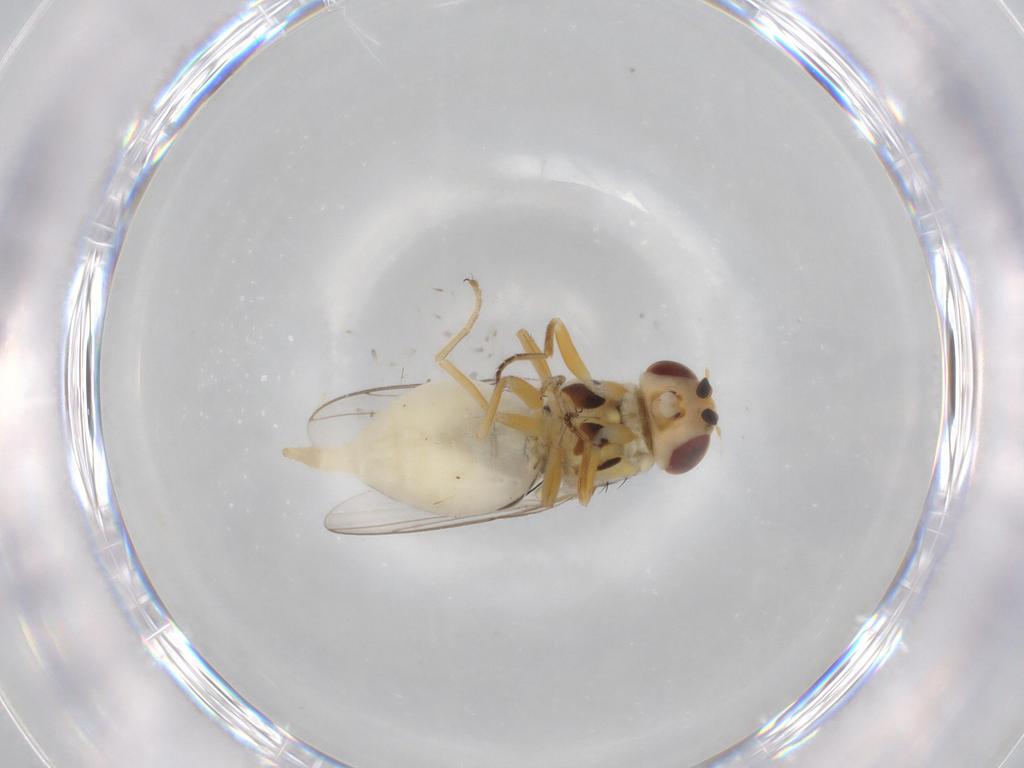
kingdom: Animalia
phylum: Arthropoda
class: Insecta
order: Diptera
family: Chloropidae
